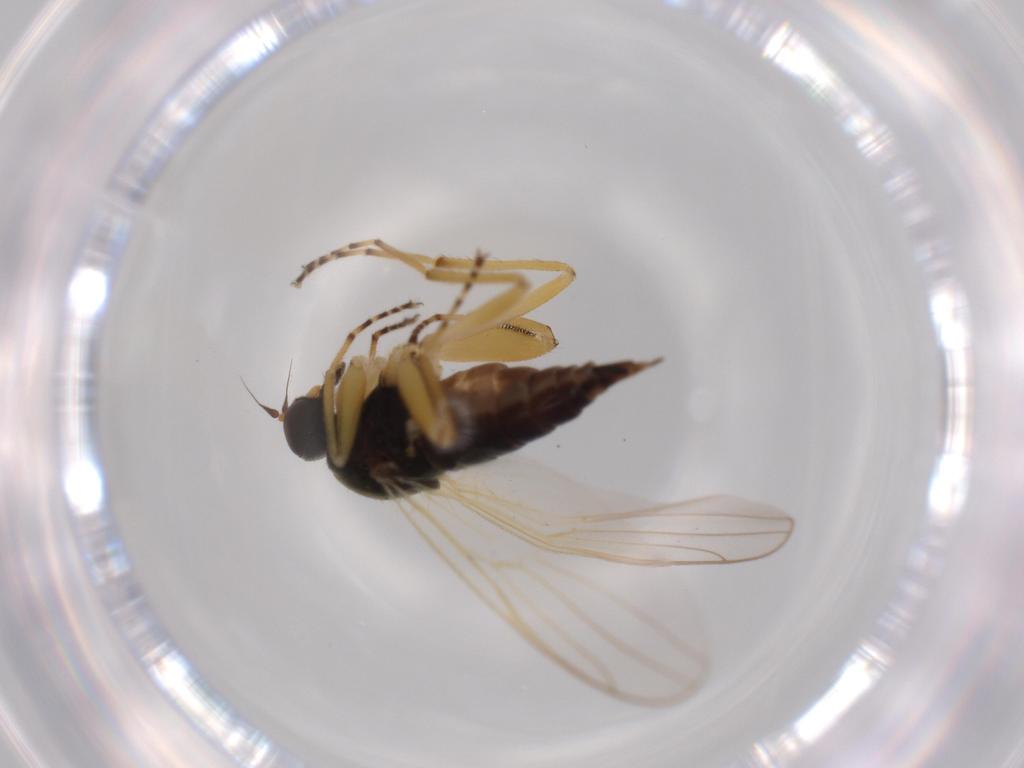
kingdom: Animalia
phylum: Arthropoda
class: Insecta
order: Diptera
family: Hybotidae
